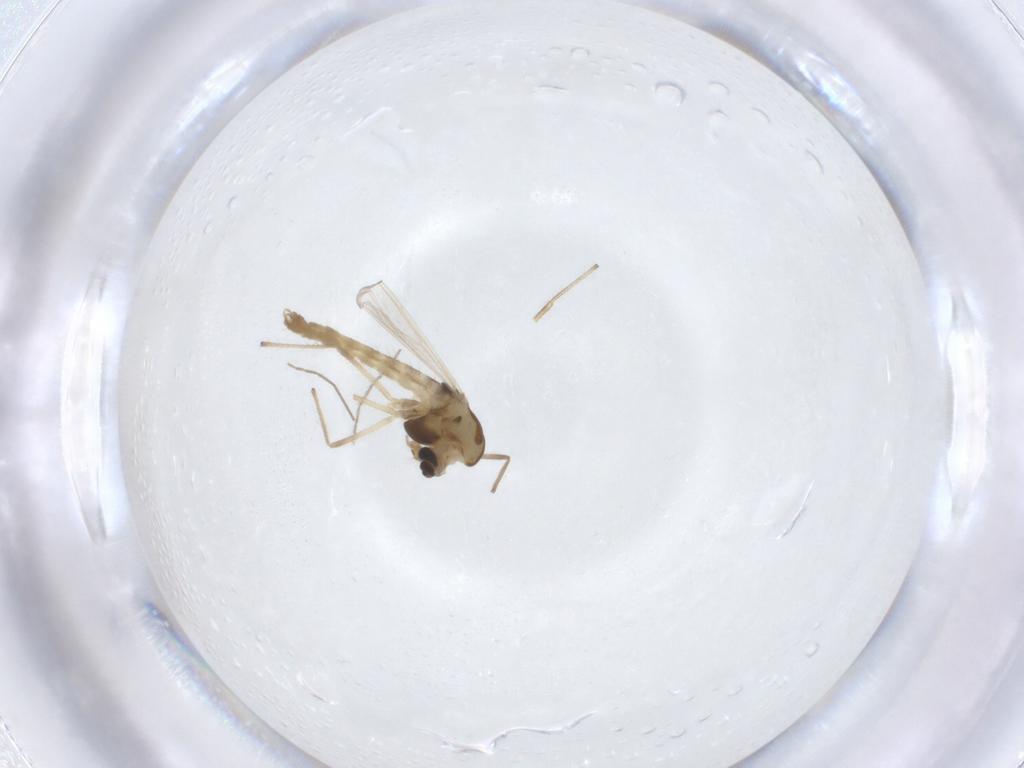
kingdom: Animalia
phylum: Arthropoda
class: Insecta
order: Diptera
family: Chironomidae
